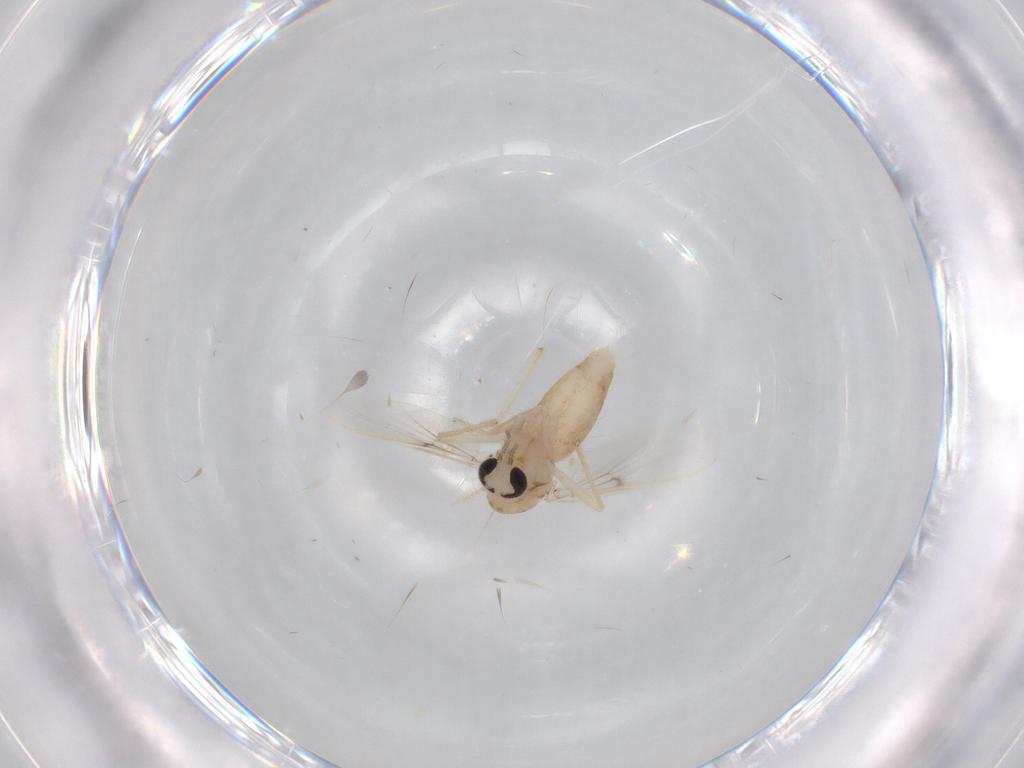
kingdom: Animalia
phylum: Arthropoda
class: Insecta
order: Diptera
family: Chironomidae
